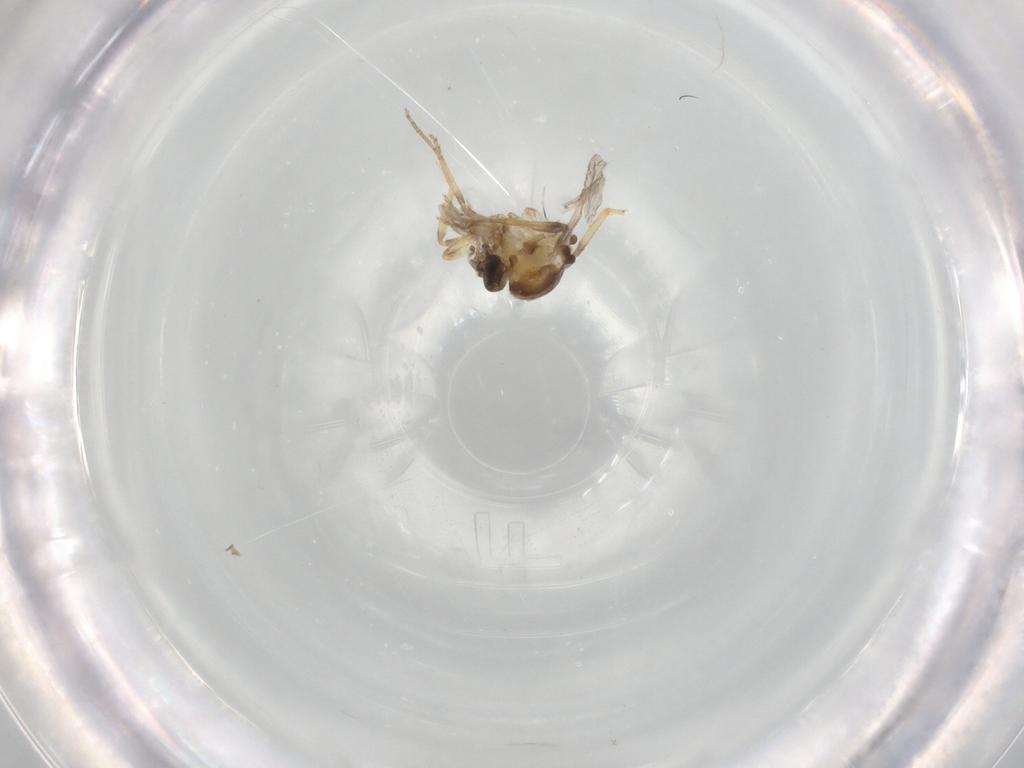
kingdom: Animalia
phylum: Arthropoda
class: Insecta
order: Diptera
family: Ceratopogonidae
